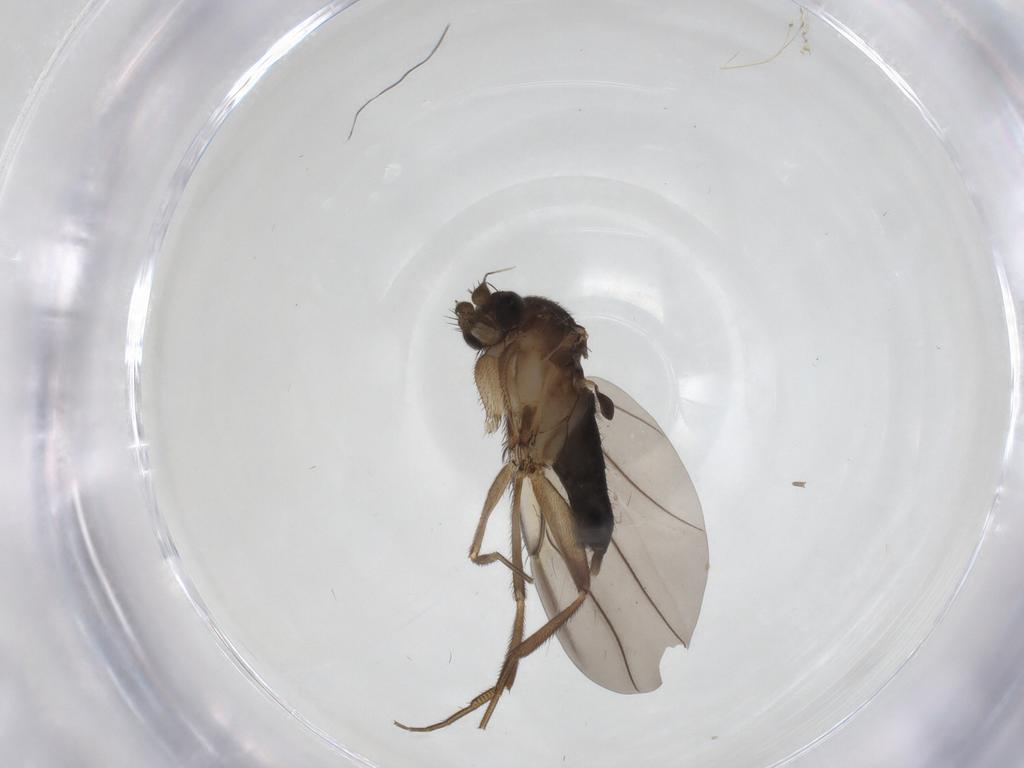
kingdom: Animalia
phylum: Arthropoda
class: Insecta
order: Diptera
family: Phoridae
